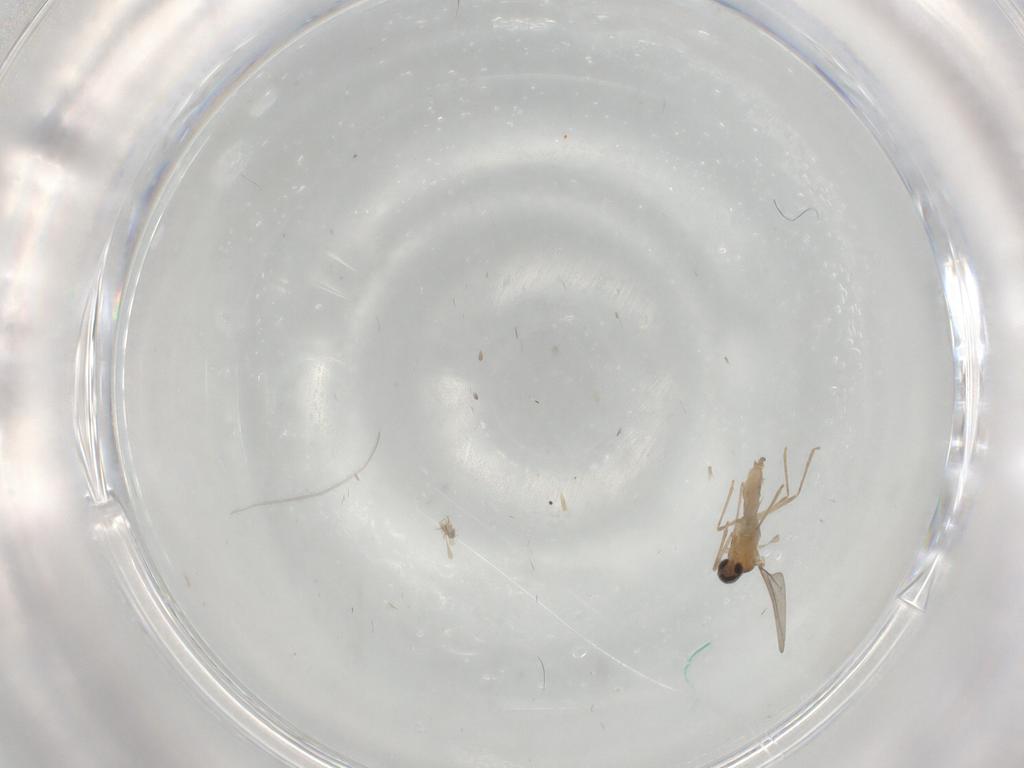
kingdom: Animalia
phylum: Arthropoda
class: Insecta
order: Diptera
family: Cecidomyiidae
